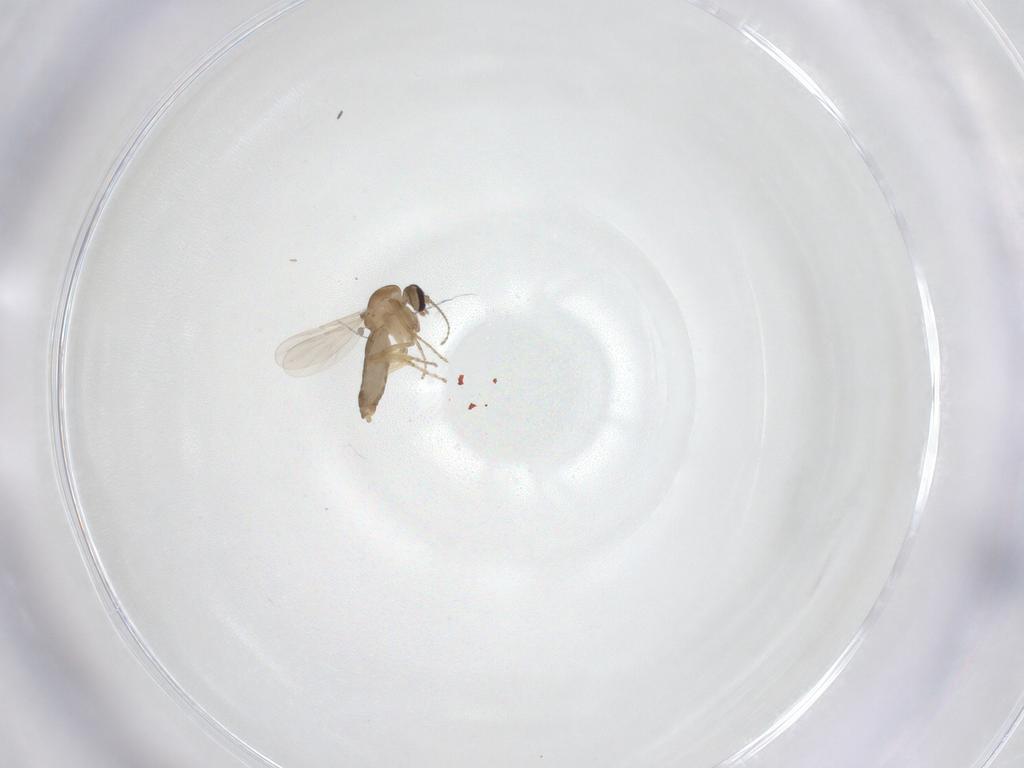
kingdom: Animalia
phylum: Arthropoda
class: Insecta
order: Diptera
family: Ceratopogonidae
